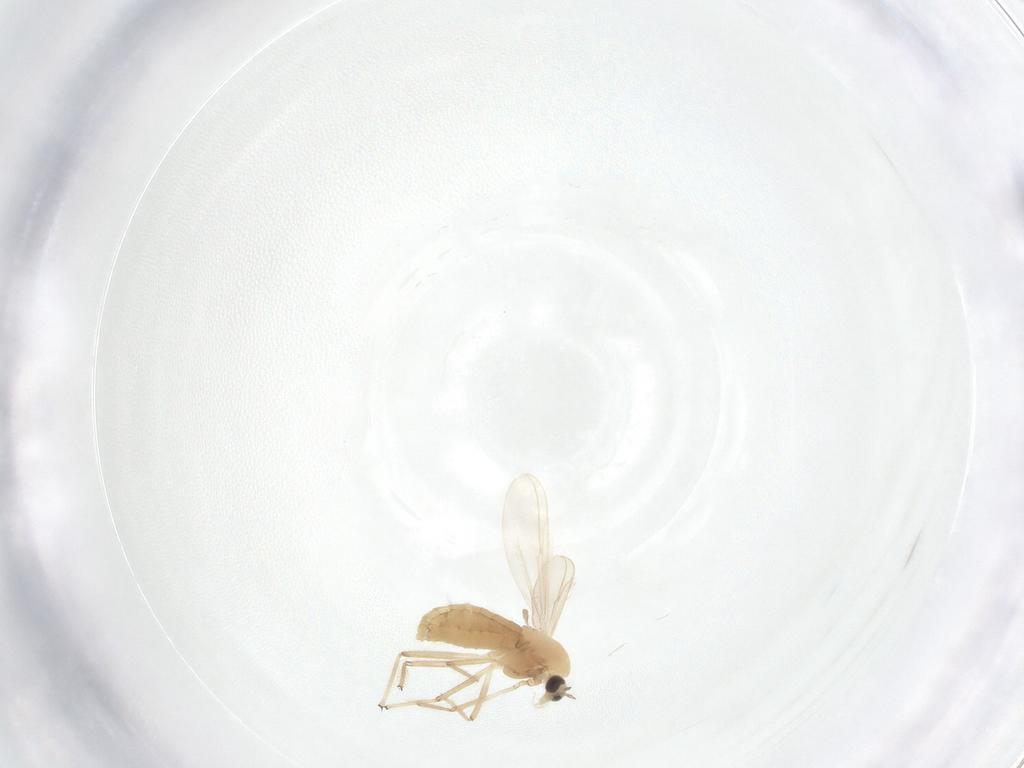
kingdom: Animalia
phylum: Arthropoda
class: Insecta
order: Diptera
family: Chironomidae
